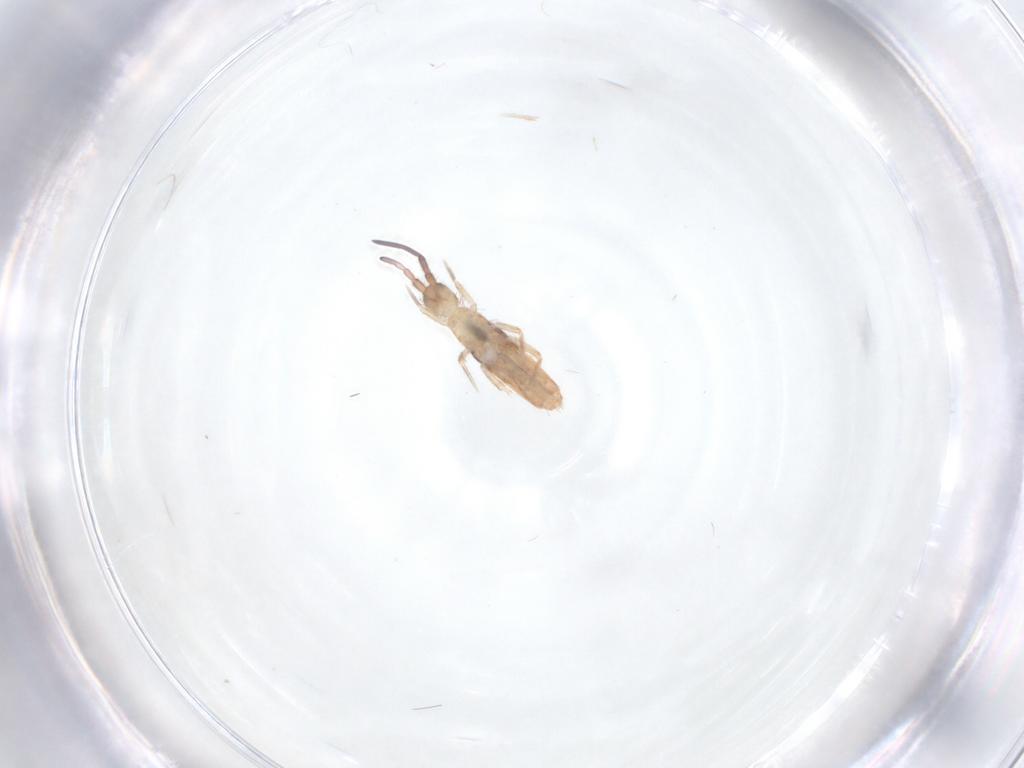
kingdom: Animalia
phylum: Arthropoda
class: Collembola
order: Entomobryomorpha
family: Entomobryidae
